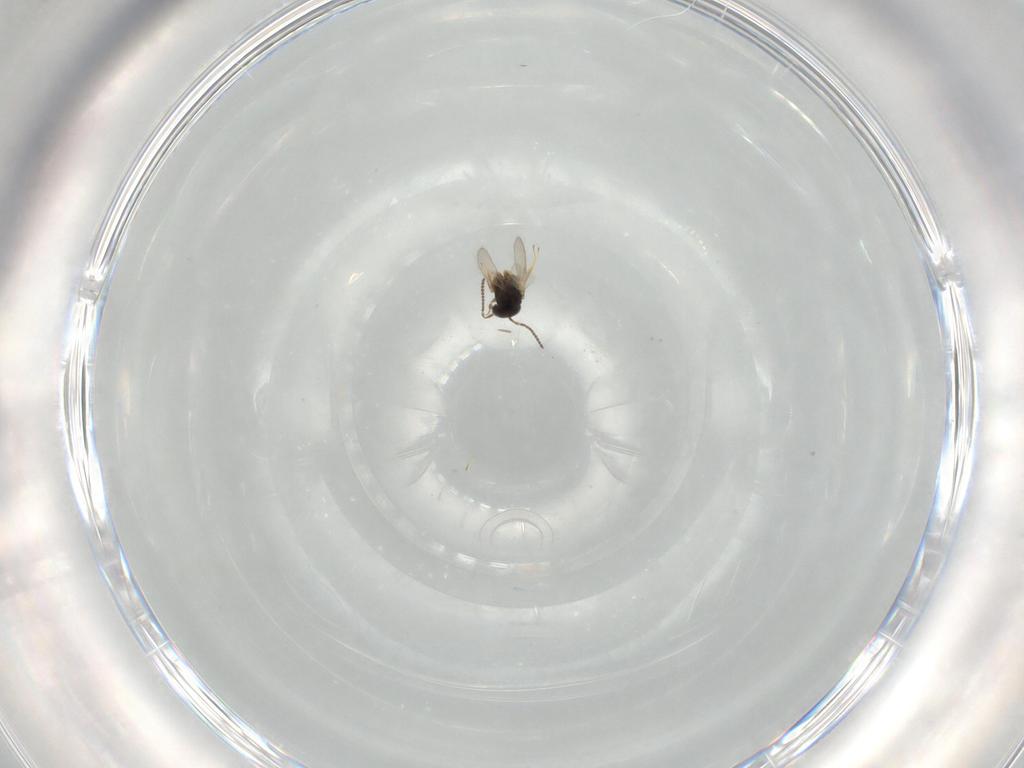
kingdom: Animalia
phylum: Arthropoda
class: Insecta
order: Hymenoptera
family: Scelionidae
